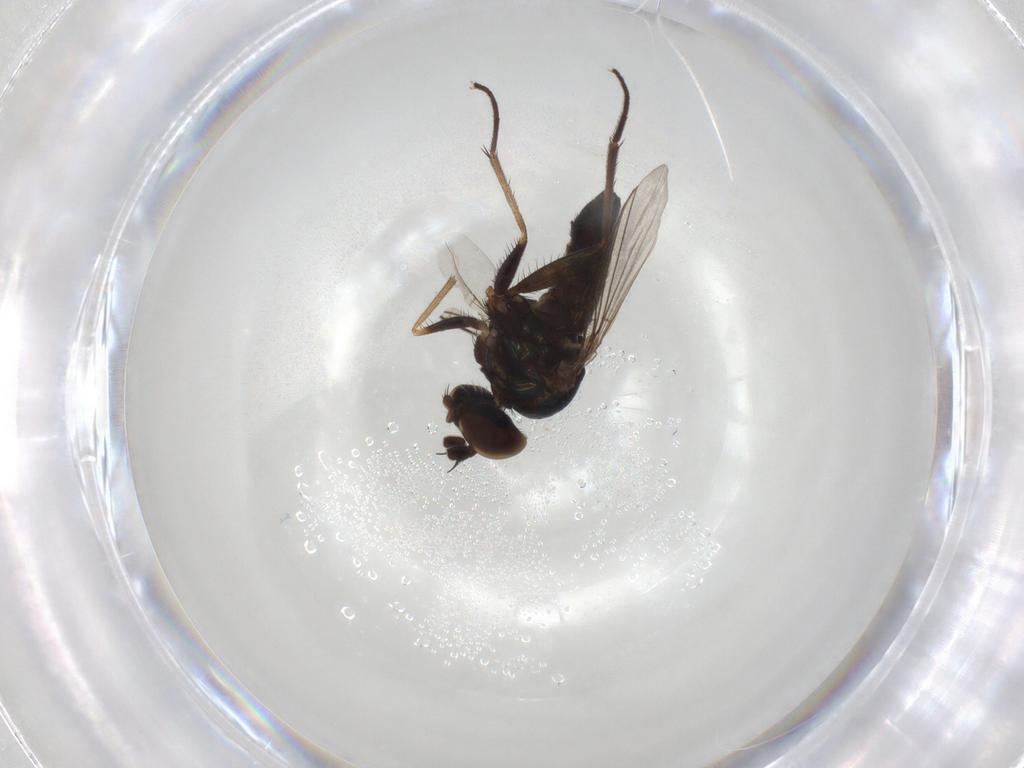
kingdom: Animalia
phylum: Arthropoda
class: Insecta
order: Diptera
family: Dolichopodidae
